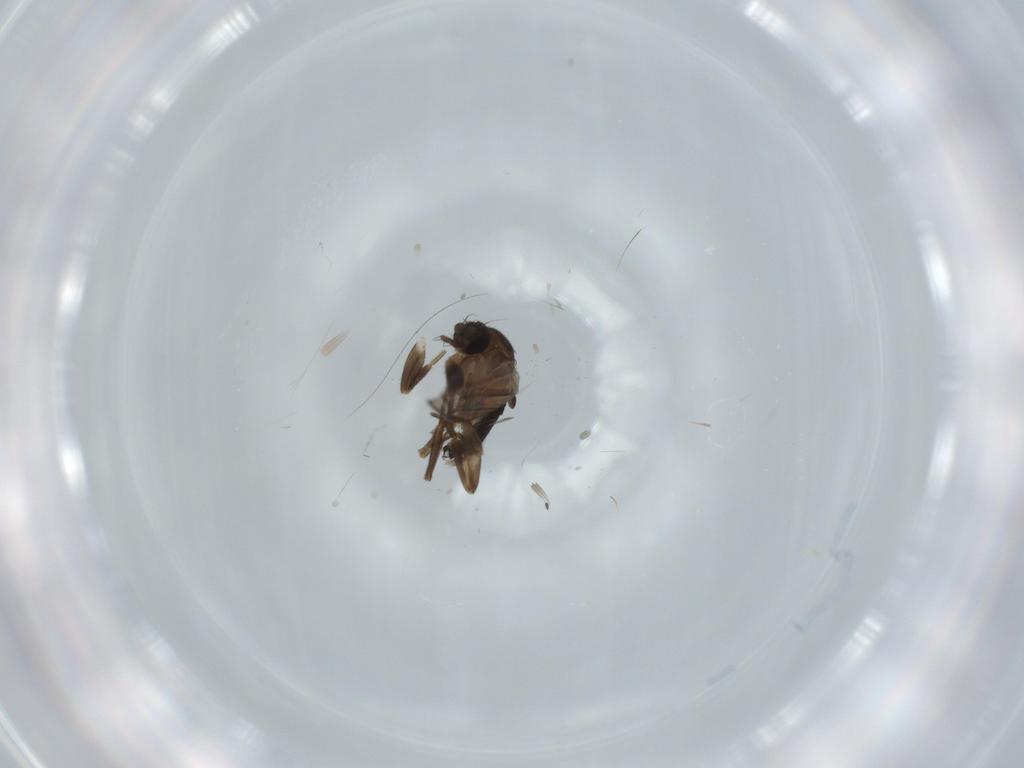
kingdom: Animalia
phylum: Arthropoda
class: Insecta
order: Diptera
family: Psychodidae
